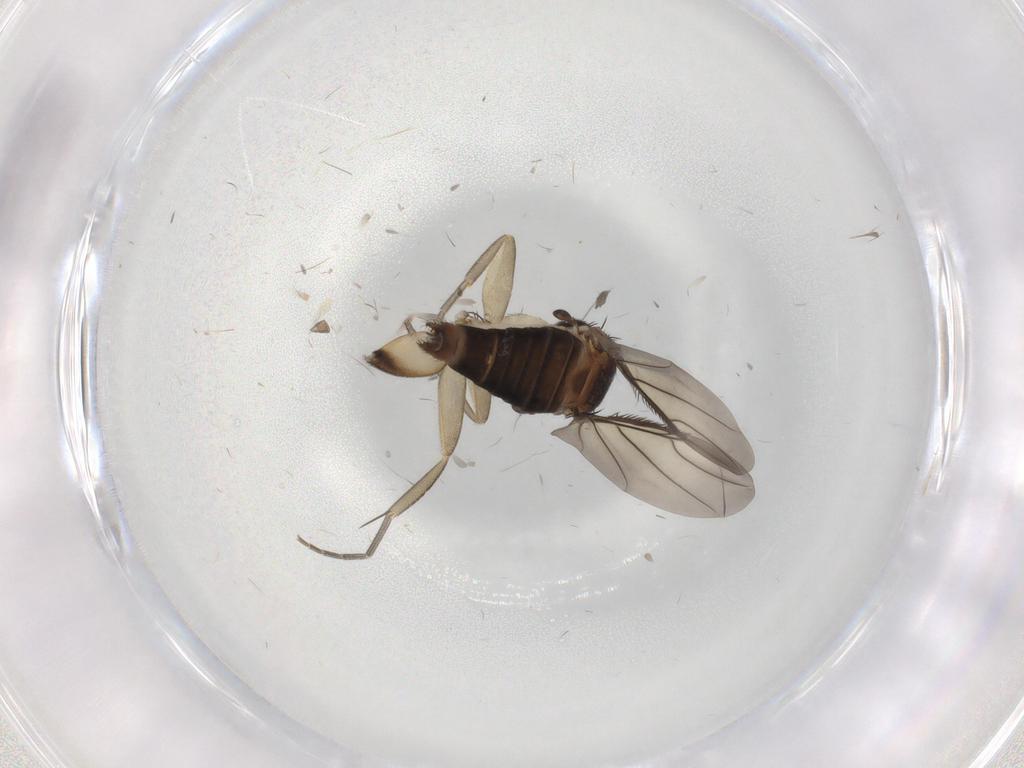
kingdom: Animalia
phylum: Arthropoda
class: Insecta
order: Diptera
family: Phoridae
